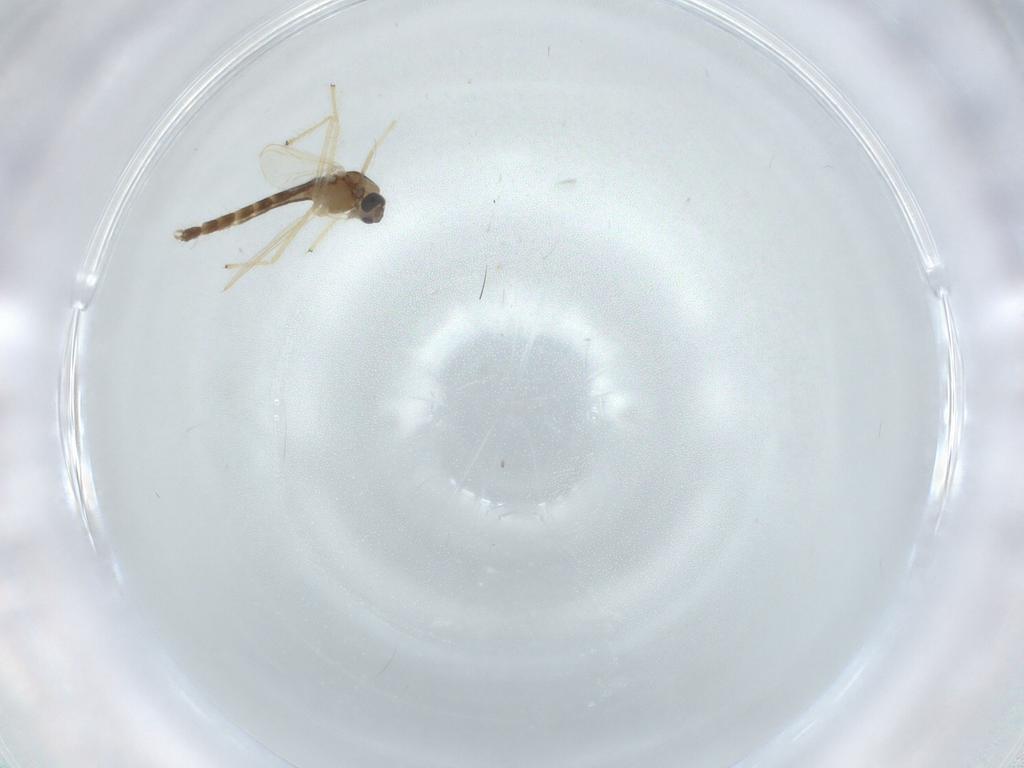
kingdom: Animalia
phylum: Arthropoda
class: Insecta
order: Diptera
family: Chironomidae
